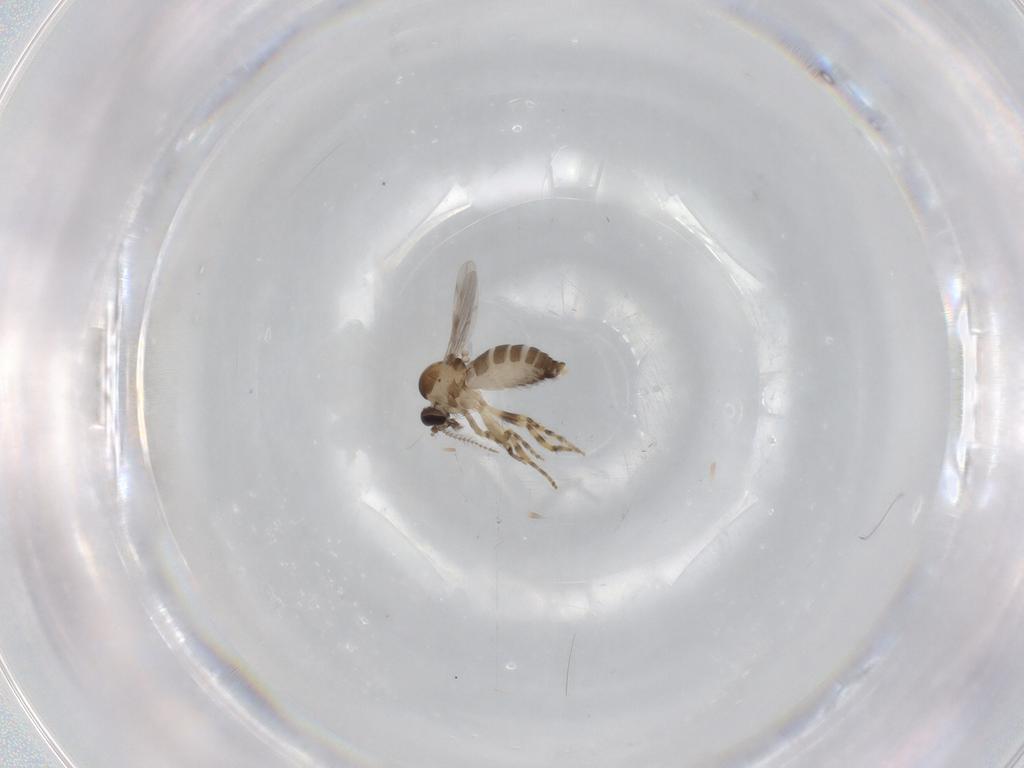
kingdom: Animalia
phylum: Arthropoda
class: Insecta
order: Diptera
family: Ceratopogonidae
